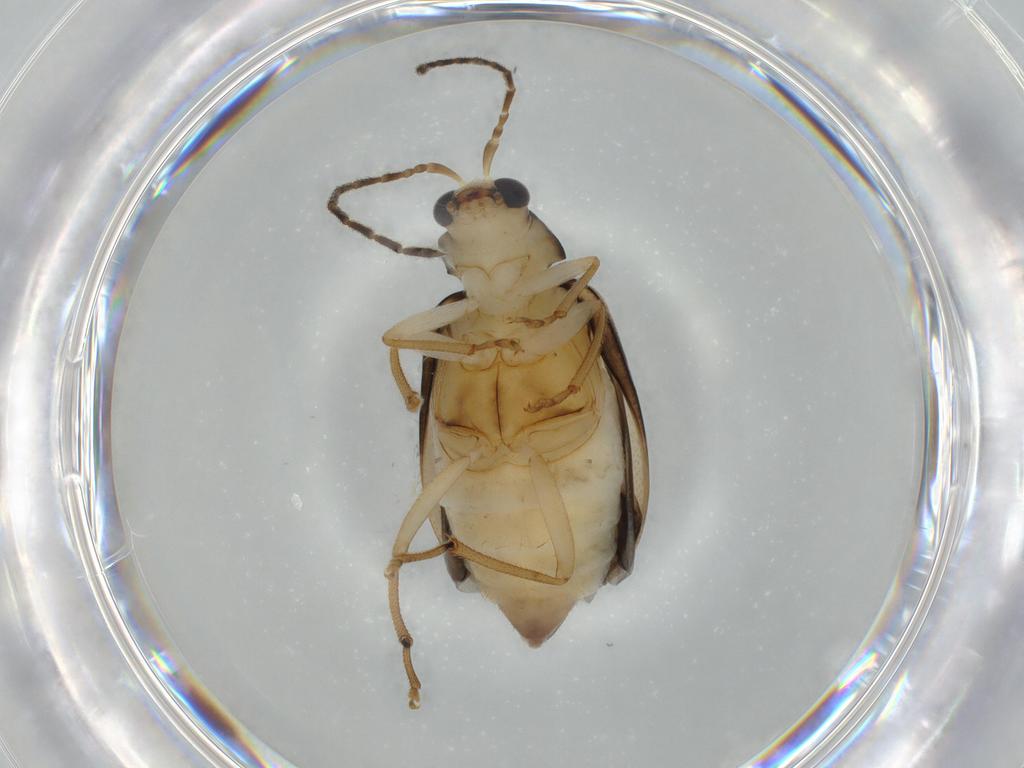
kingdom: Animalia
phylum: Arthropoda
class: Insecta
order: Coleoptera
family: Chrysomelidae
